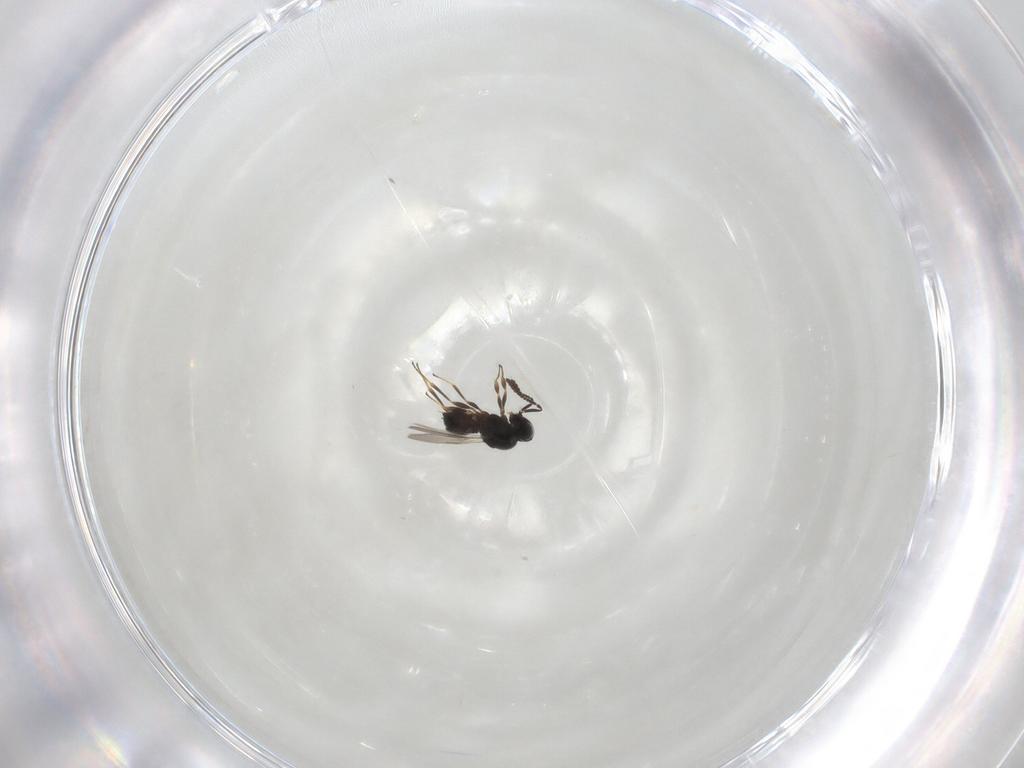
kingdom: Animalia
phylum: Arthropoda
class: Insecta
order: Hymenoptera
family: Scelionidae
